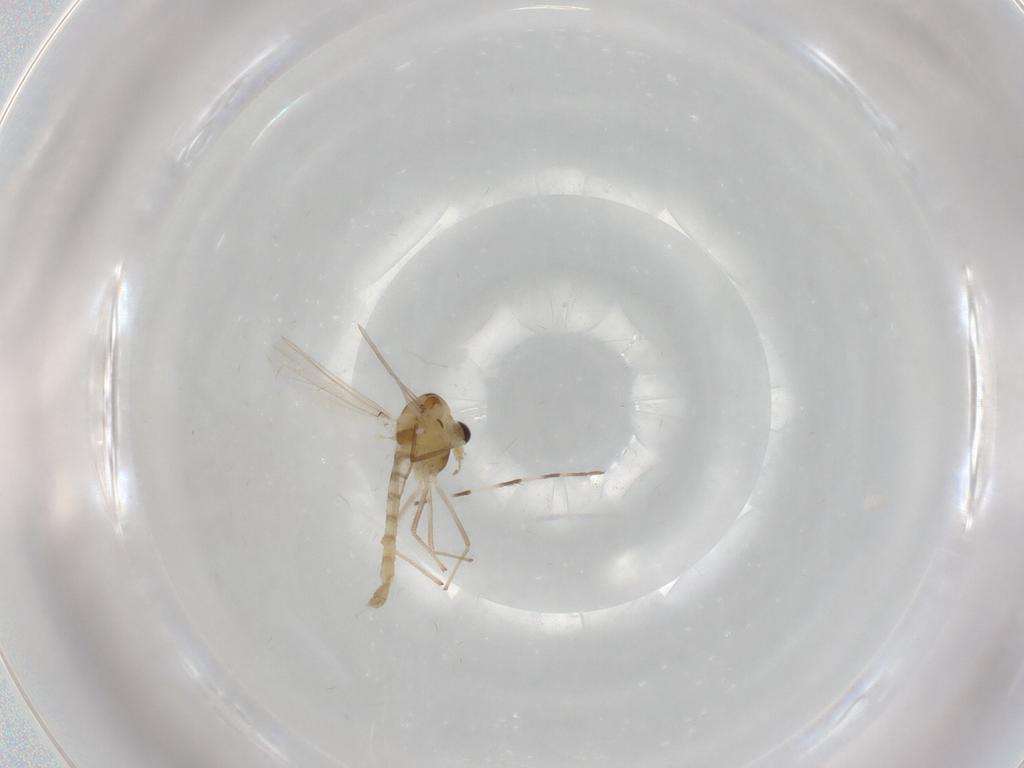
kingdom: Animalia
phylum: Arthropoda
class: Insecta
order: Diptera
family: Chironomidae
